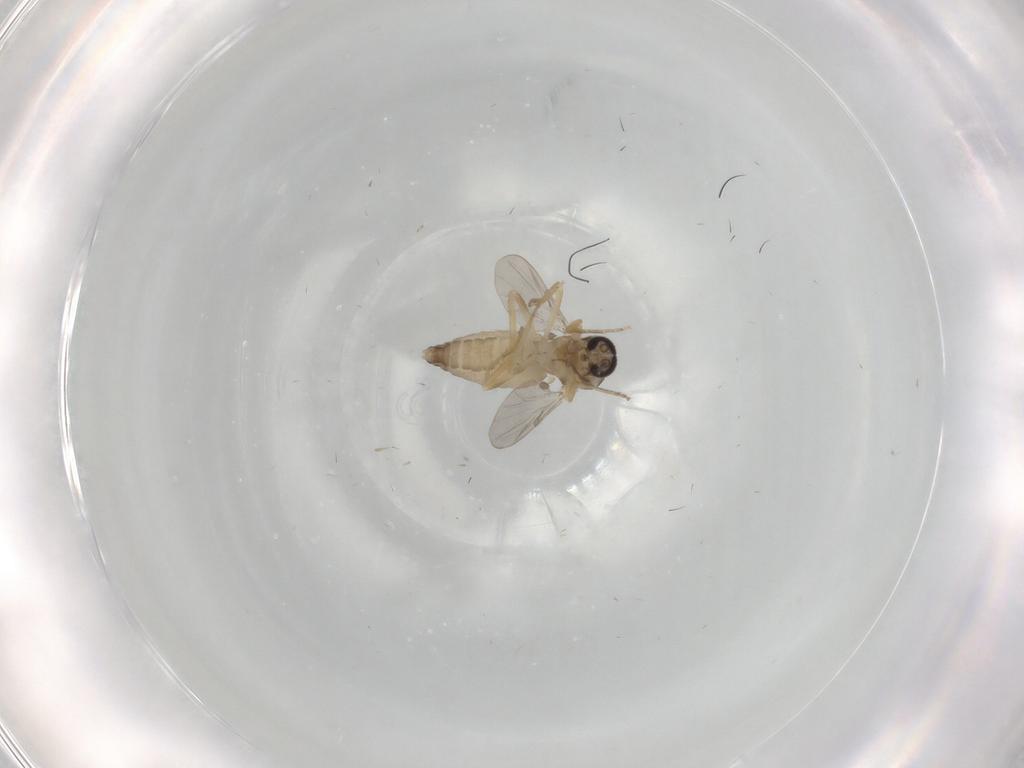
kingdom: Animalia
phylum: Arthropoda
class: Insecta
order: Diptera
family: Ceratopogonidae
